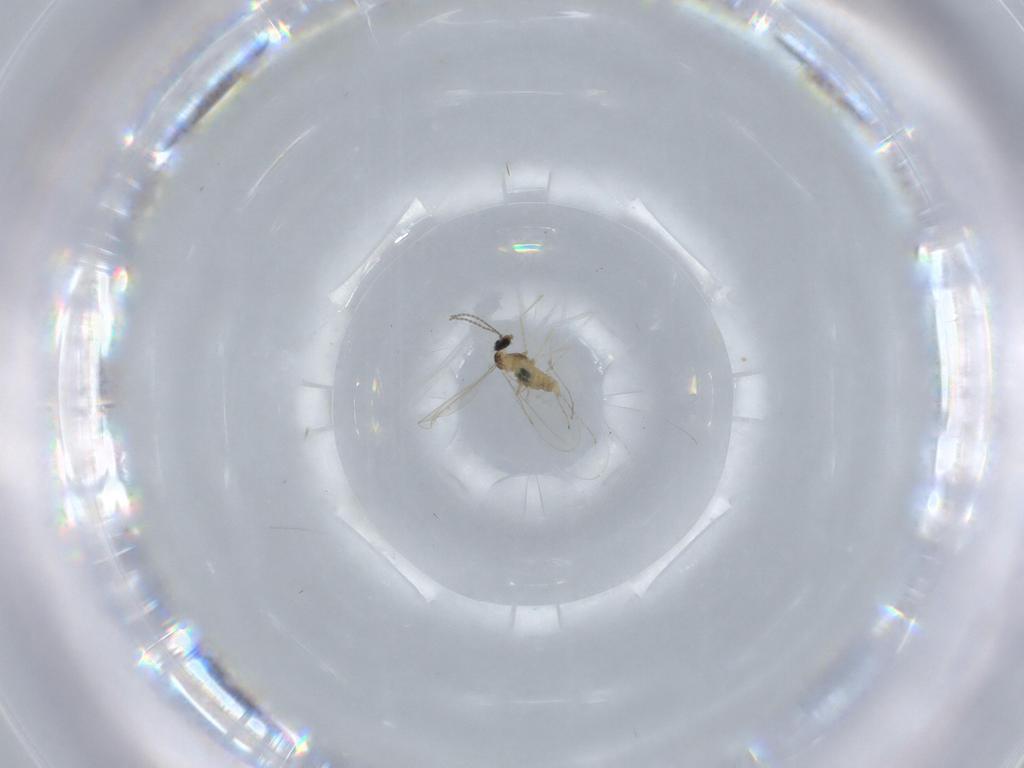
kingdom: Animalia
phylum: Arthropoda
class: Insecta
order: Diptera
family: Cecidomyiidae
